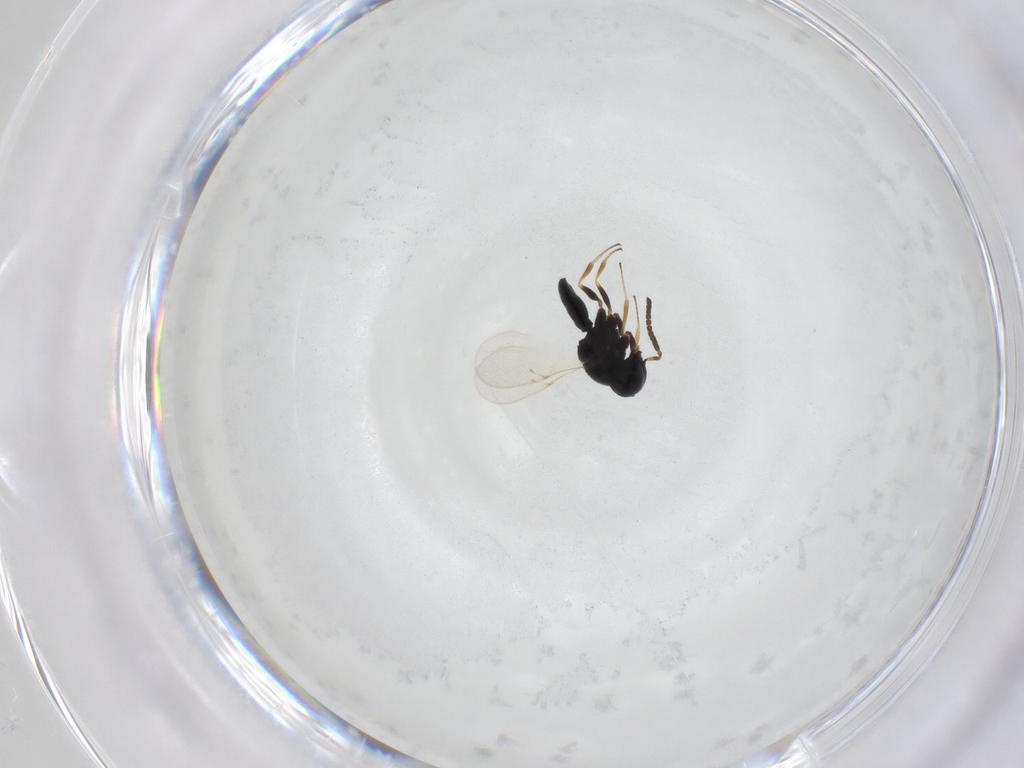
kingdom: Animalia
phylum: Arthropoda
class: Insecta
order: Hymenoptera
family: Scelionidae
